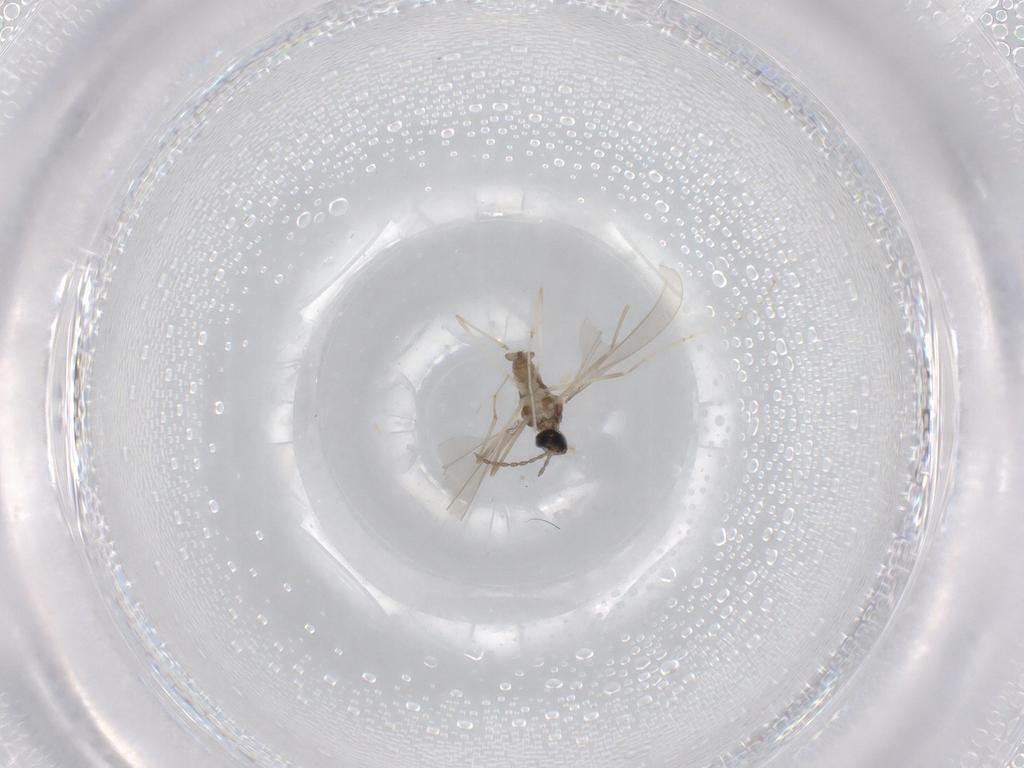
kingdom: Animalia
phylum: Arthropoda
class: Insecta
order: Diptera
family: Cecidomyiidae
